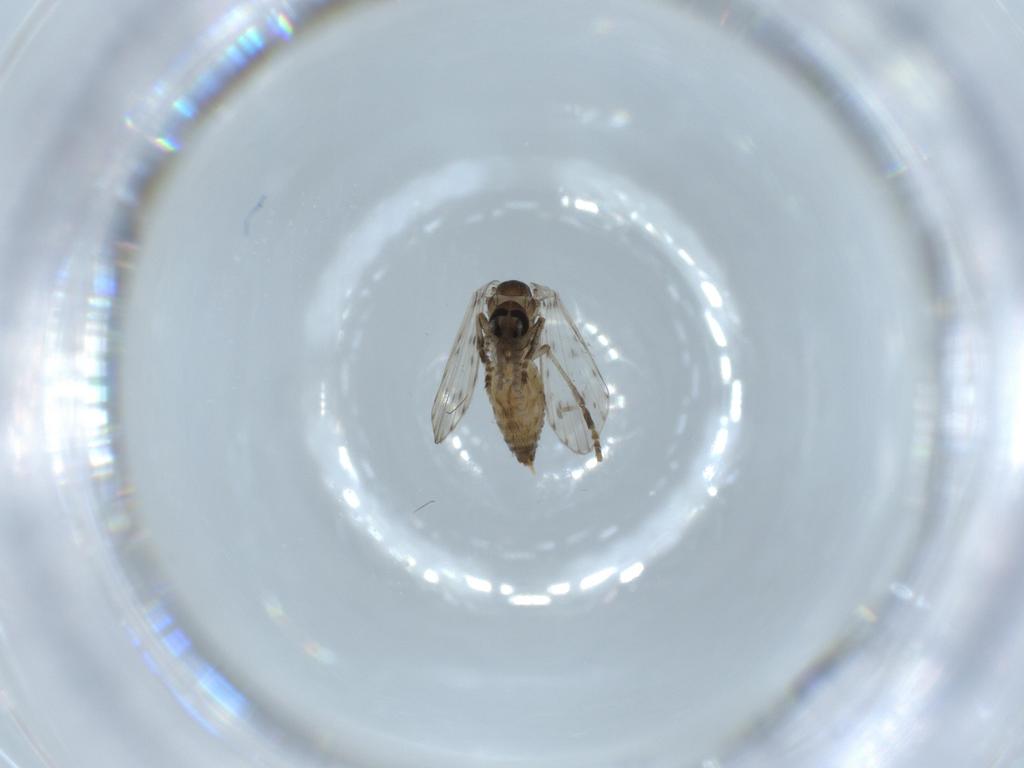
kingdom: Animalia
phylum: Arthropoda
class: Insecta
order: Diptera
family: Psychodidae
